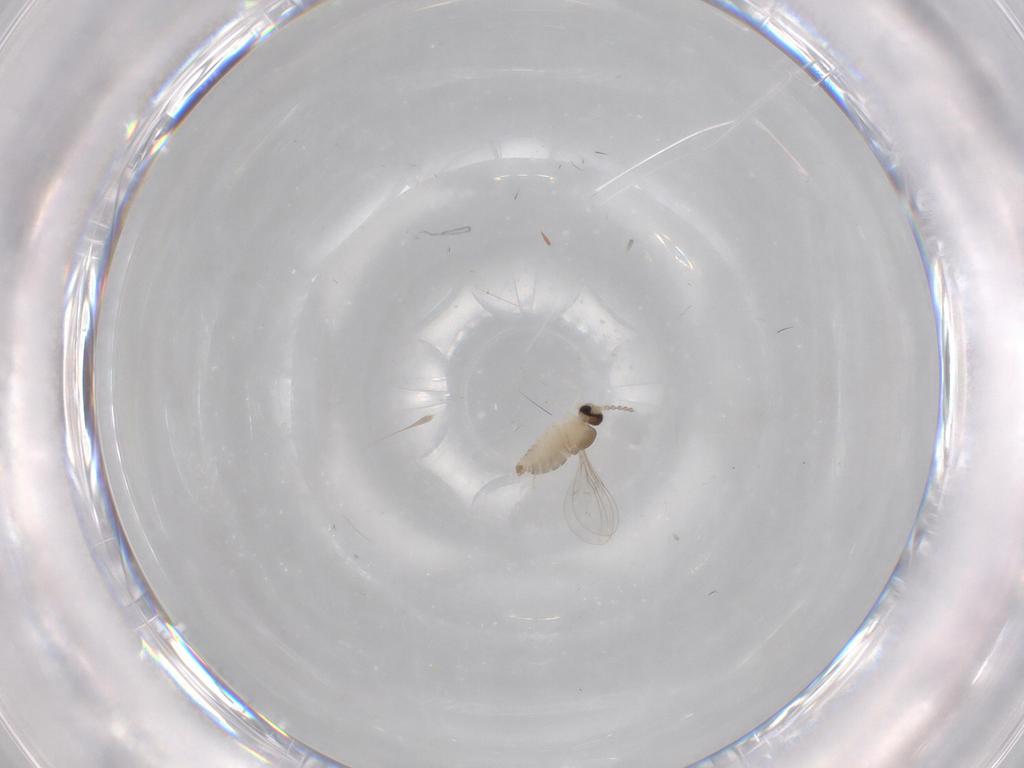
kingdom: Animalia
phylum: Arthropoda
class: Insecta
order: Diptera
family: Cecidomyiidae
